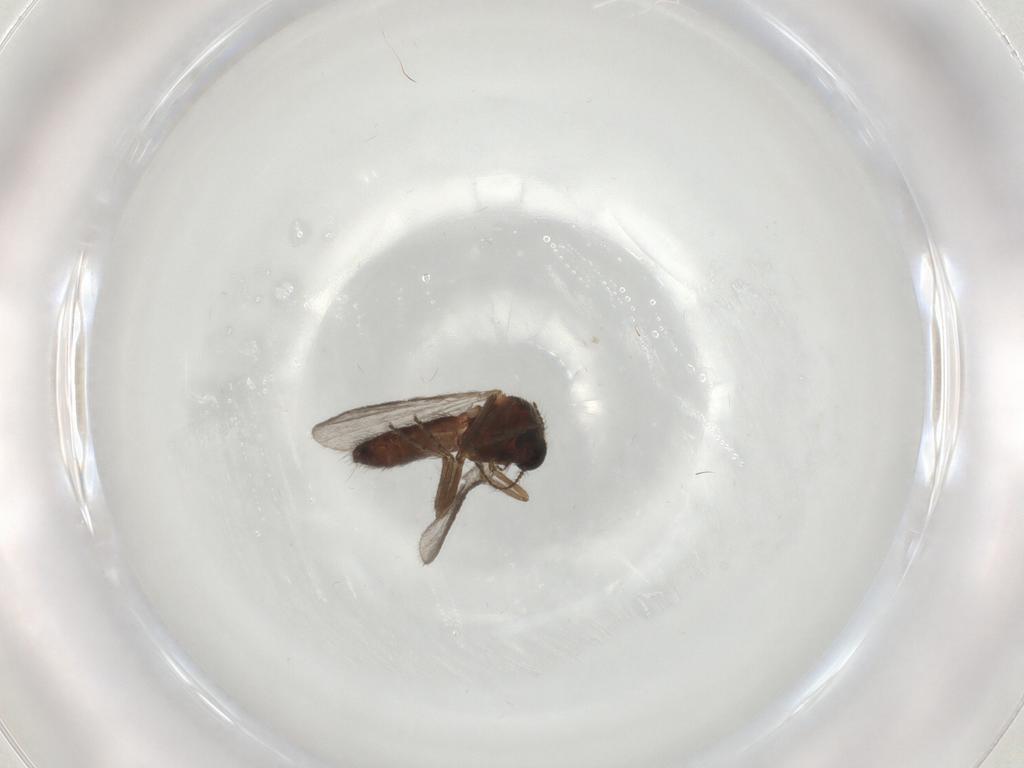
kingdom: Animalia
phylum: Arthropoda
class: Insecta
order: Diptera
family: Ceratopogonidae
